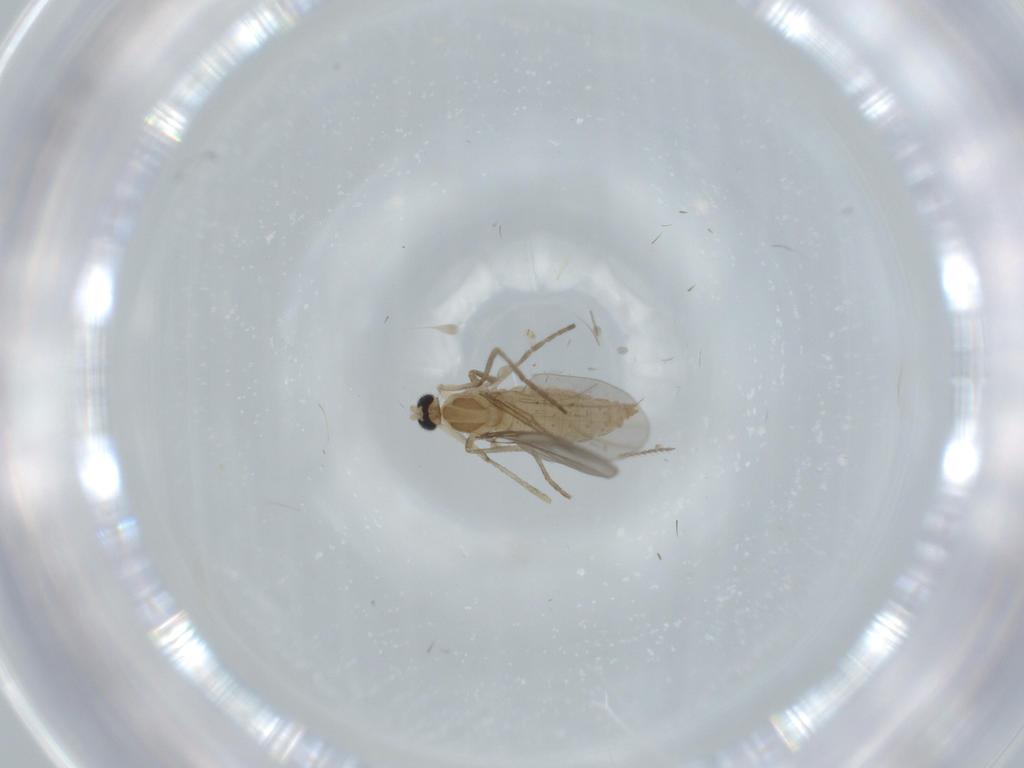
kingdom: Animalia
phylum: Arthropoda
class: Insecta
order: Diptera
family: Cecidomyiidae
